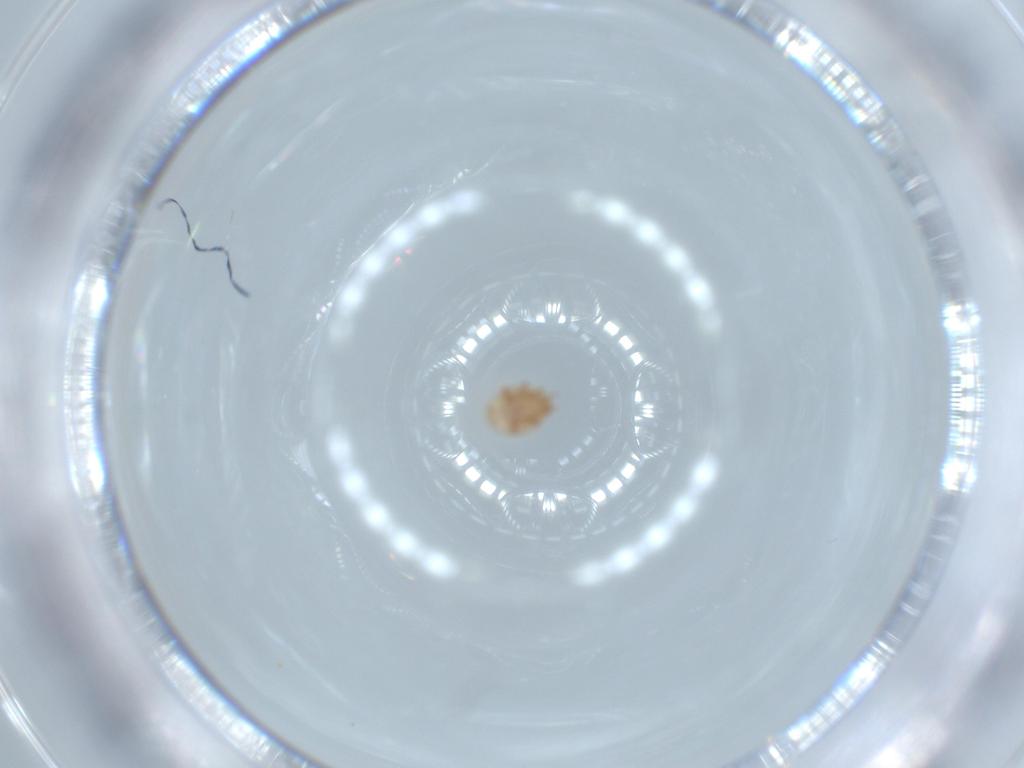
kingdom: Animalia
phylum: Arthropoda
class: Insecta
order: Diptera
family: Cecidomyiidae
